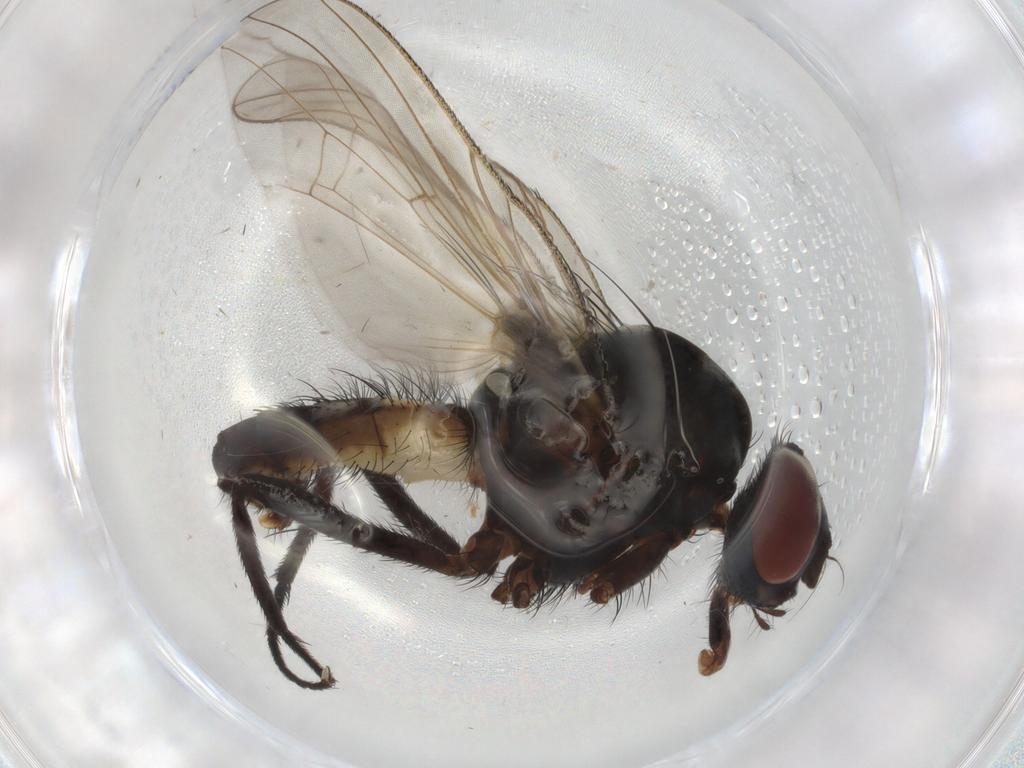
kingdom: Animalia
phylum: Arthropoda
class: Insecta
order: Diptera
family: Anthomyiidae
